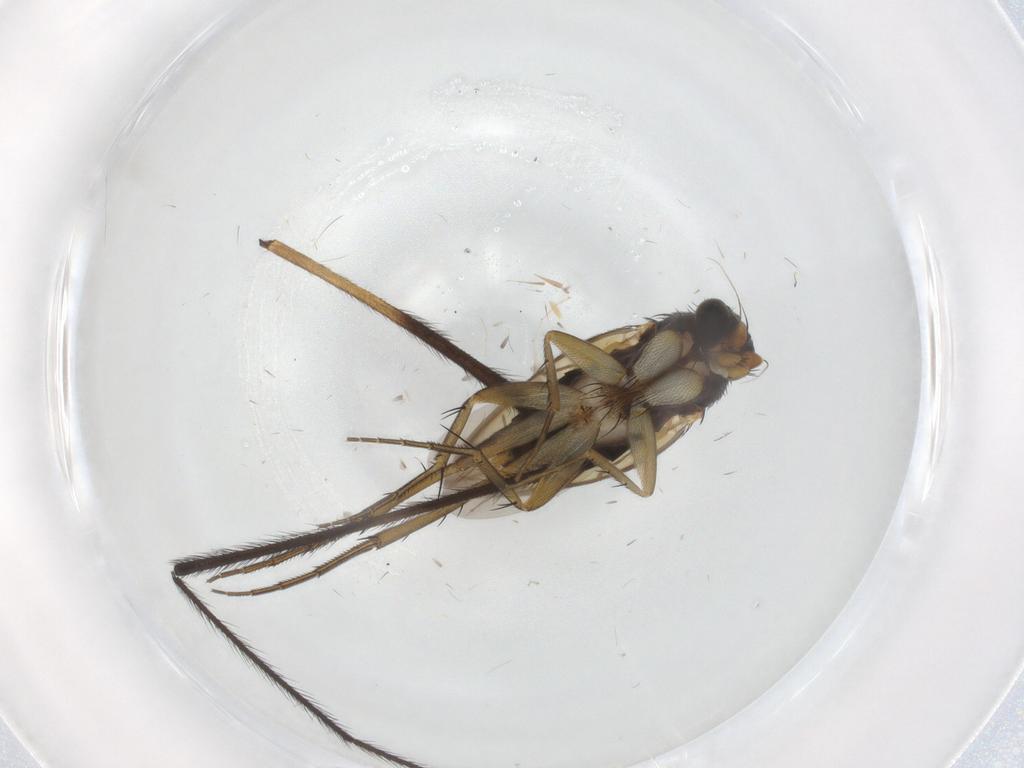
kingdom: Animalia
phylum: Arthropoda
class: Insecta
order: Diptera
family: Phoridae
